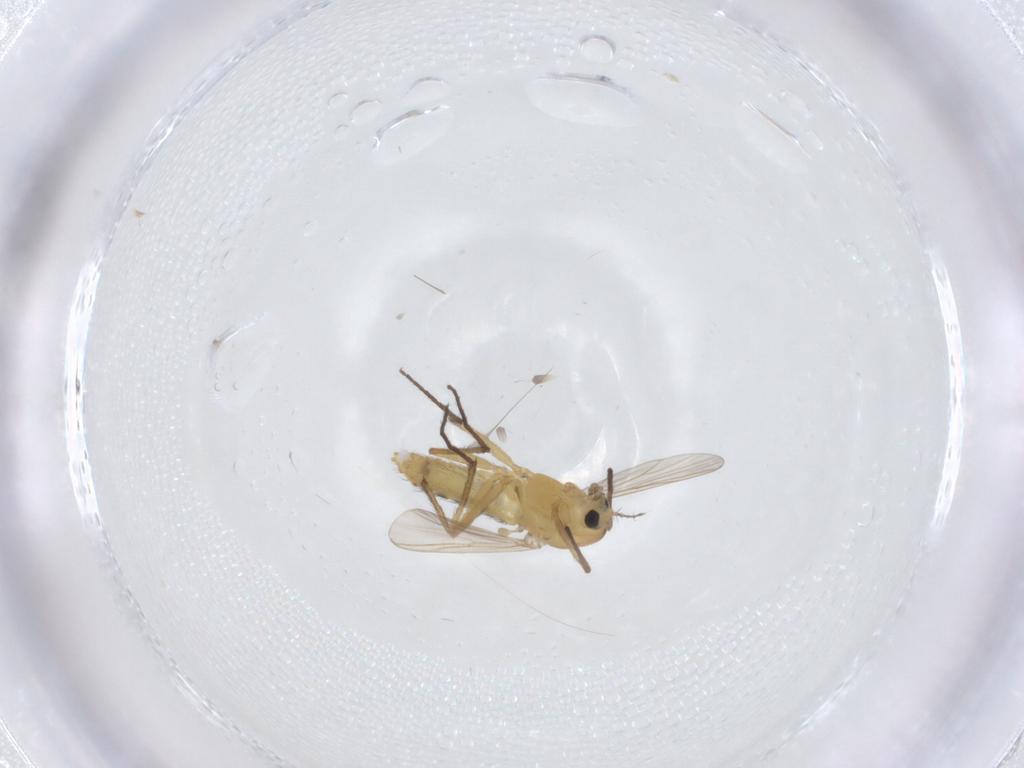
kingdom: Animalia
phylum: Arthropoda
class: Insecta
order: Diptera
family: Chironomidae
